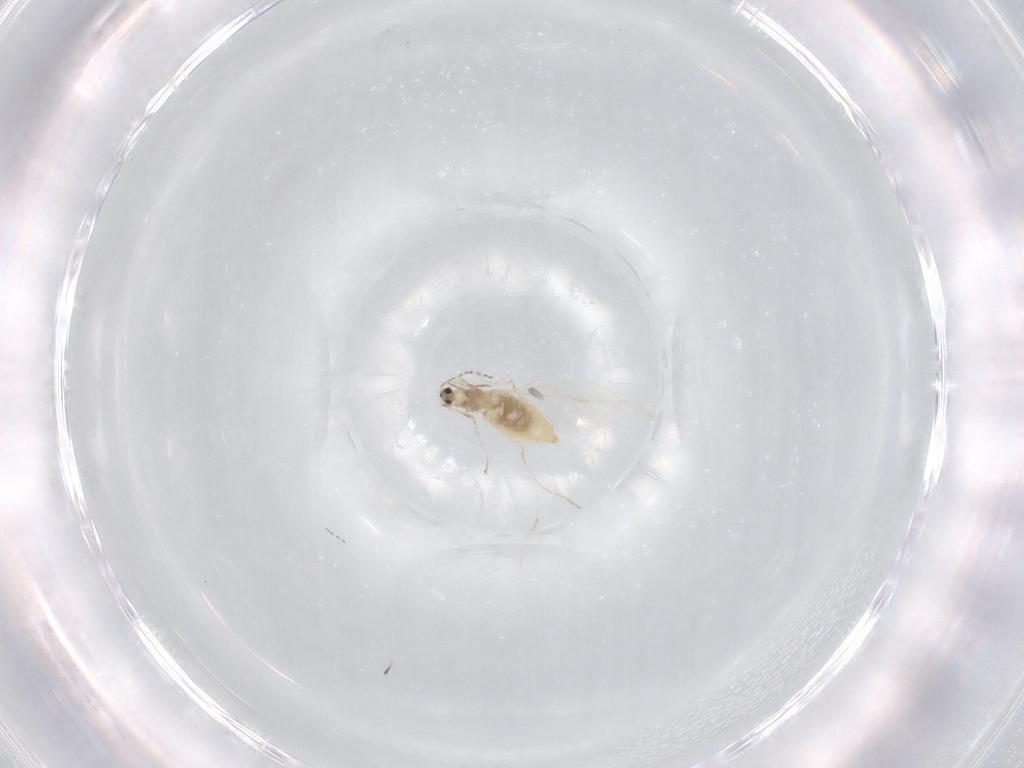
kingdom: Animalia
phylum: Arthropoda
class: Insecta
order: Diptera
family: Cecidomyiidae
